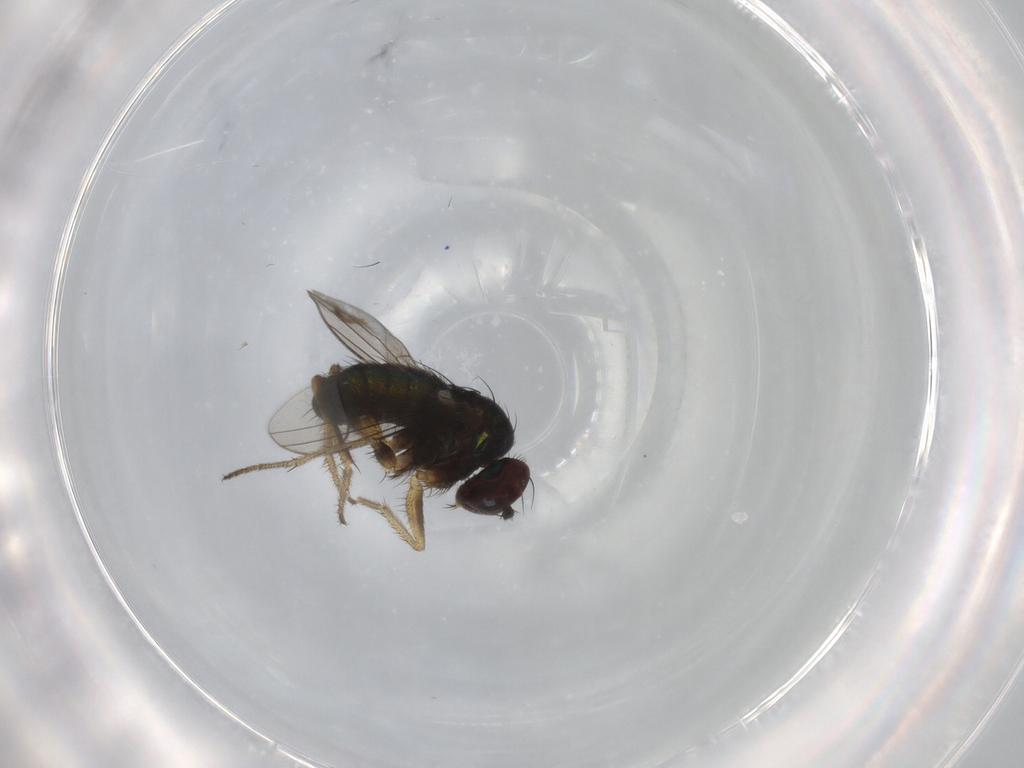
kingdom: Animalia
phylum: Arthropoda
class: Insecta
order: Diptera
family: Dolichopodidae
